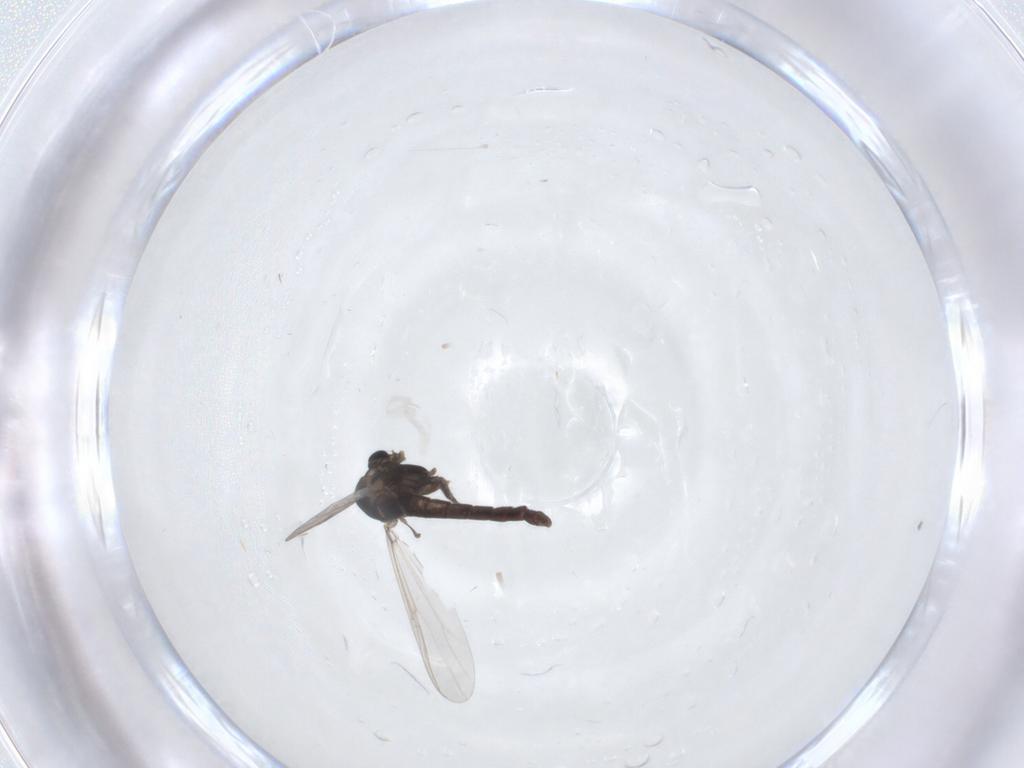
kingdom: Animalia
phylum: Arthropoda
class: Insecta
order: Diptera
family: Chironomidae
